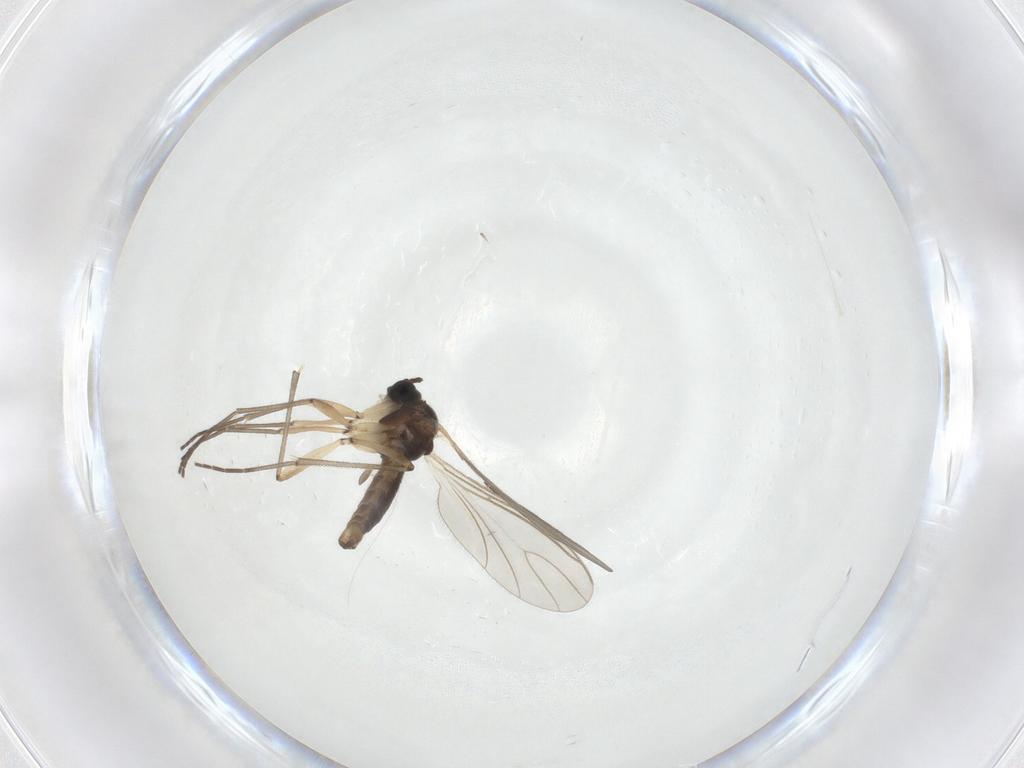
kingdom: Animalia
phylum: Arthropoda
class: Insecta
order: Diptera
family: Sciaridae
